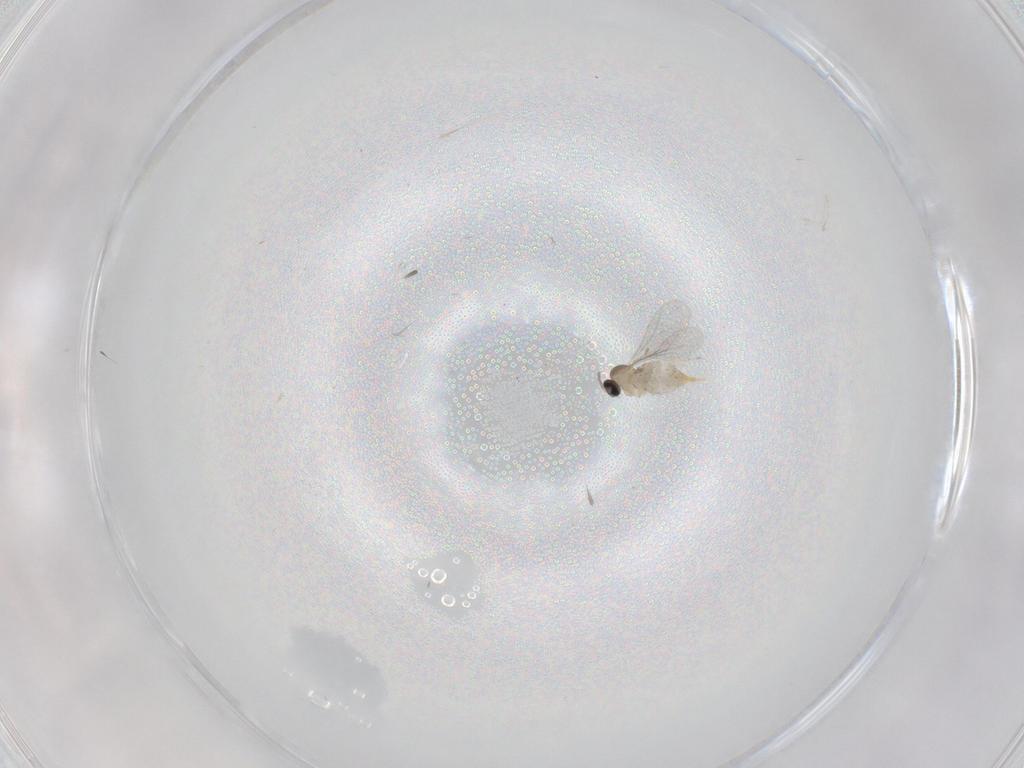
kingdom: Animalia
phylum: Arthropoda
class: Insecta
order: Diptera
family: Cecidomyiidae
